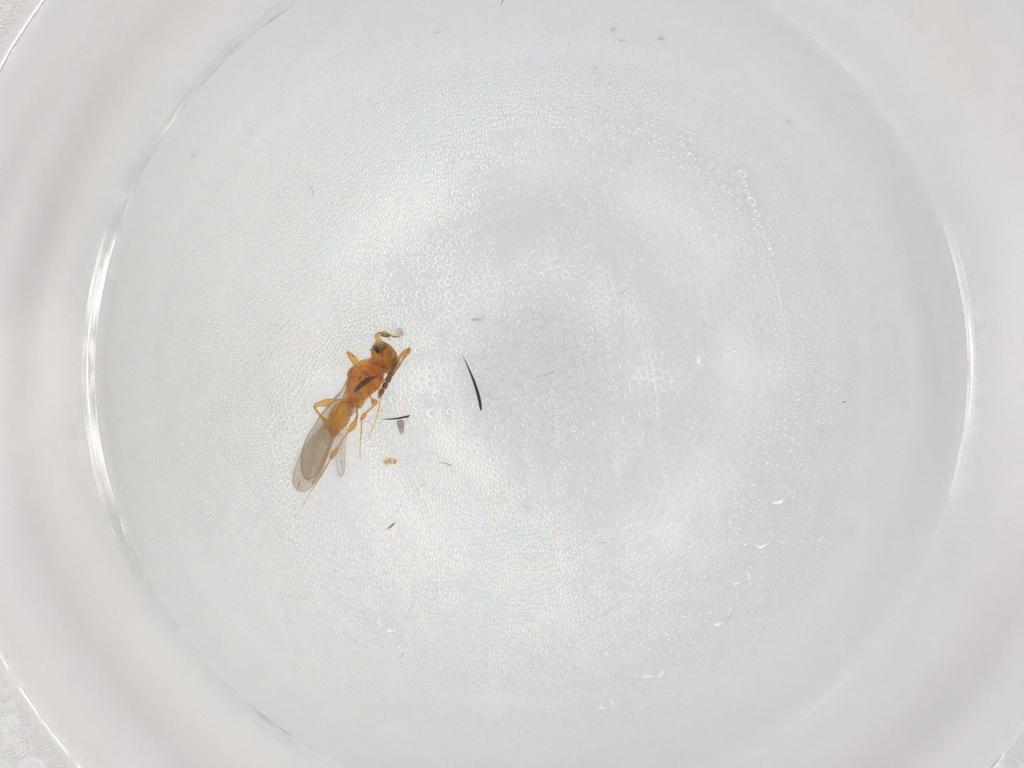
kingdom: Animalia
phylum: Arthropoda
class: Insecta
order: Hymenoptera
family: Platygastridae
